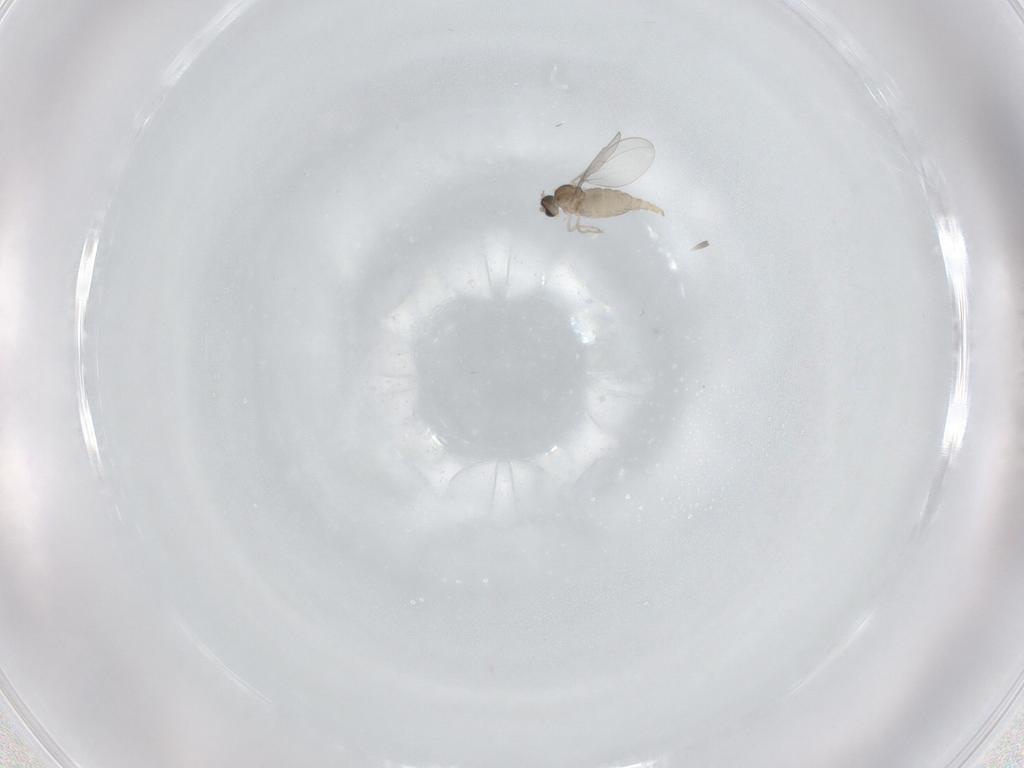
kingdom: Animalia
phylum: Arthropoda
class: Insecta
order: Diptera
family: Cecidomyiidae
